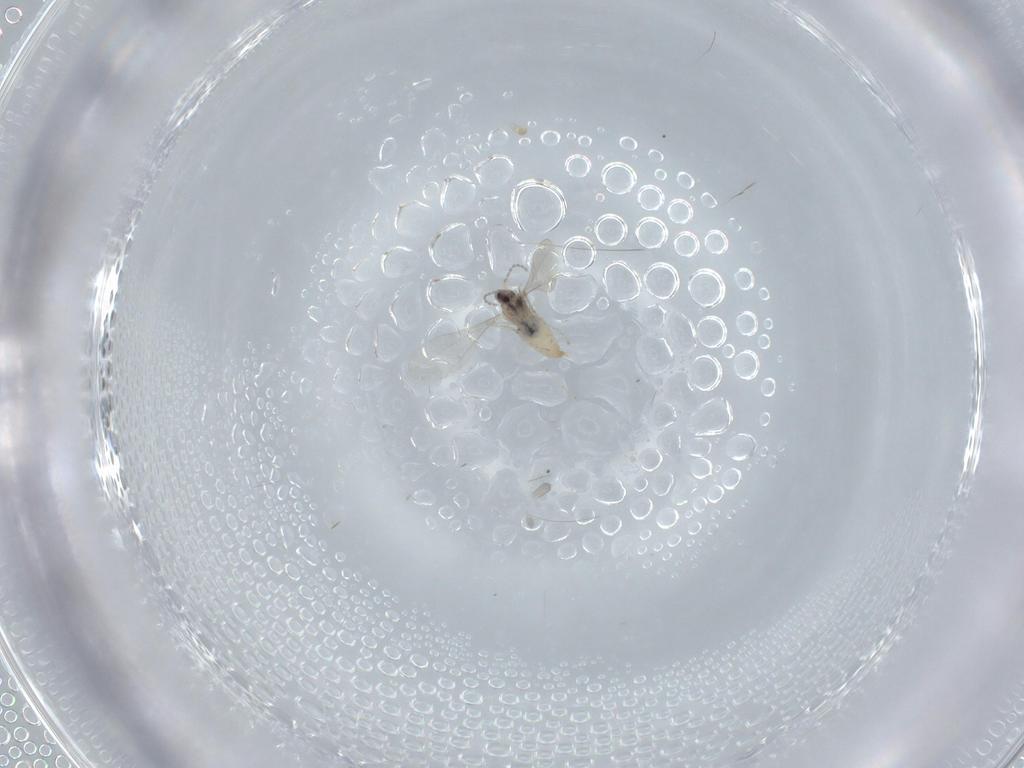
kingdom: Animalia
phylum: Arthropoda
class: Insecta
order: Diptera
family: Cecidomyiidae
